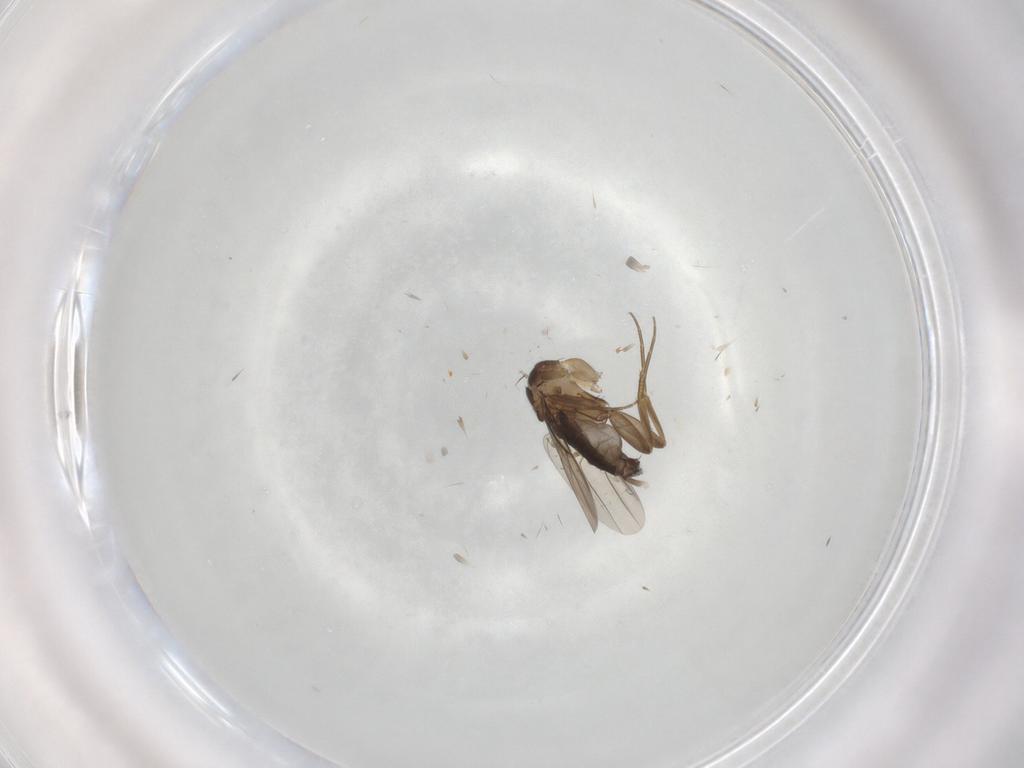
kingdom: Animalia
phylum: Arthropoda
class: Insecta
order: Diptera
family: Phoridae
